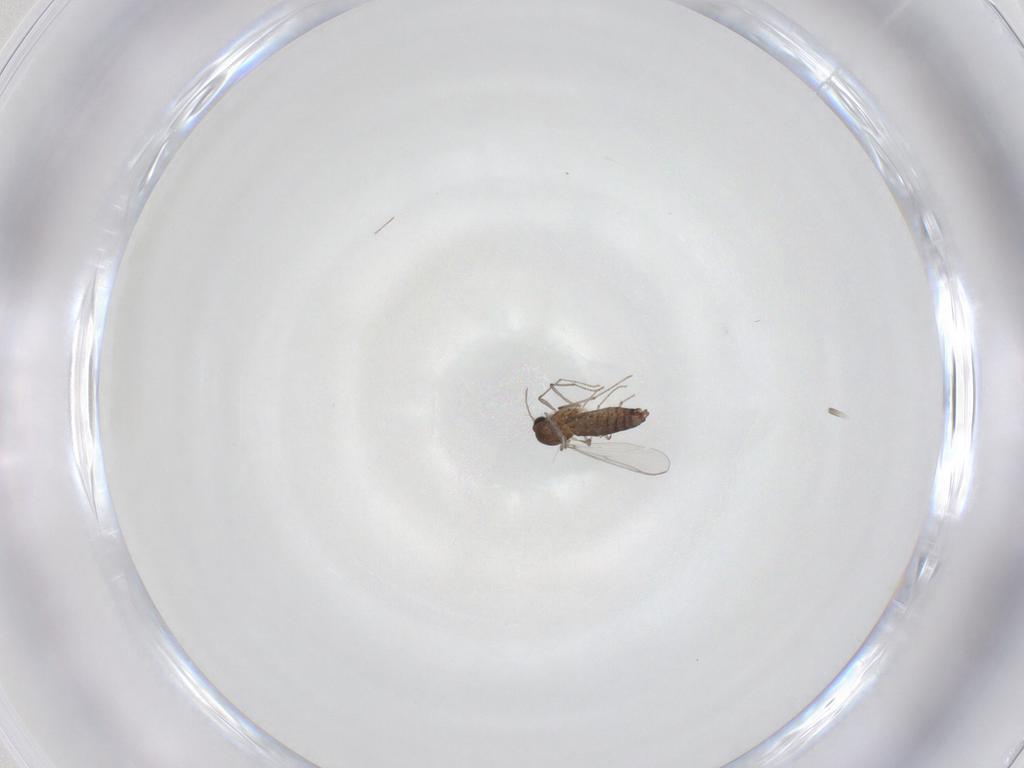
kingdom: Animalia
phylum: Arthropoda
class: Insecta
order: Diptera
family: Chironomidae
